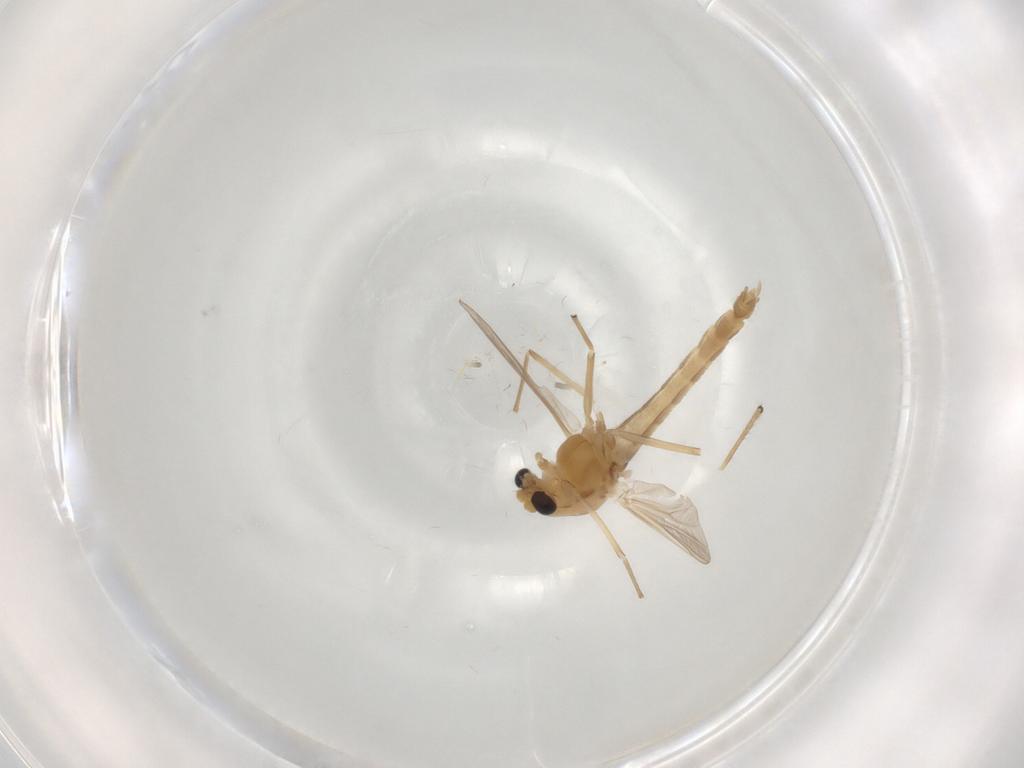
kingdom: Animalia
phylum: Arthropoda
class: Insecta
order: Diptera
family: Chironomidae
